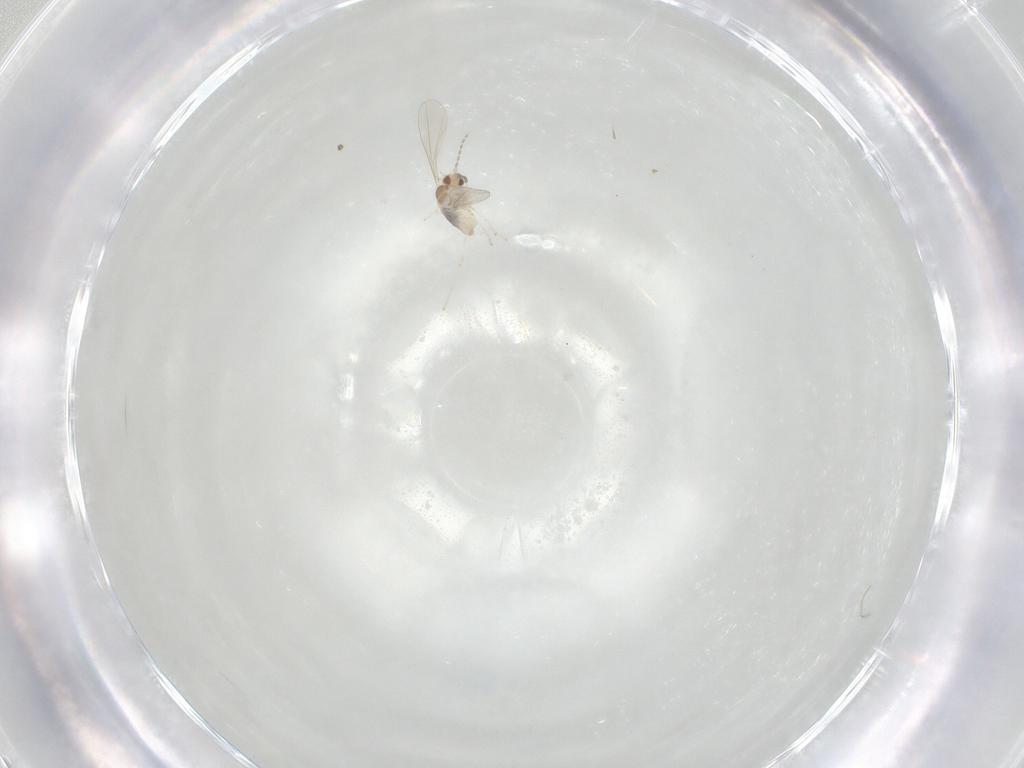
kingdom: Animalia
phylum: Arthropoda
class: Insecta
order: Diptera
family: Cecidomyiidae
